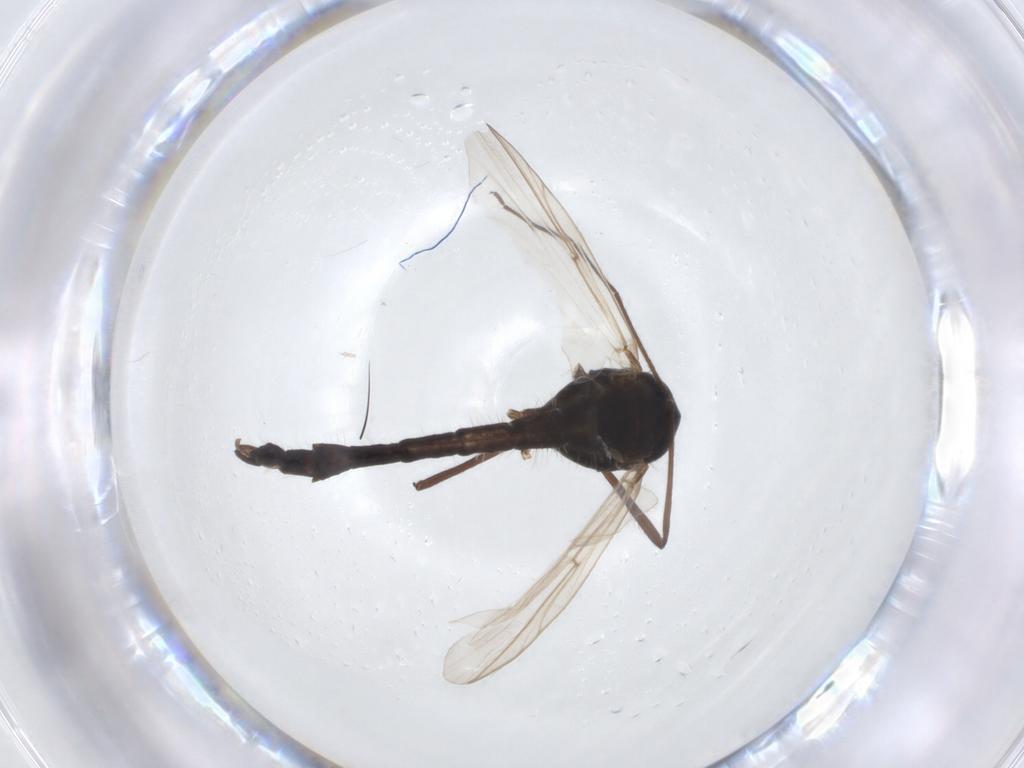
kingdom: Animalia
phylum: Arthropoda
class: Insecta
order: Diptera
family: Chironomidae
